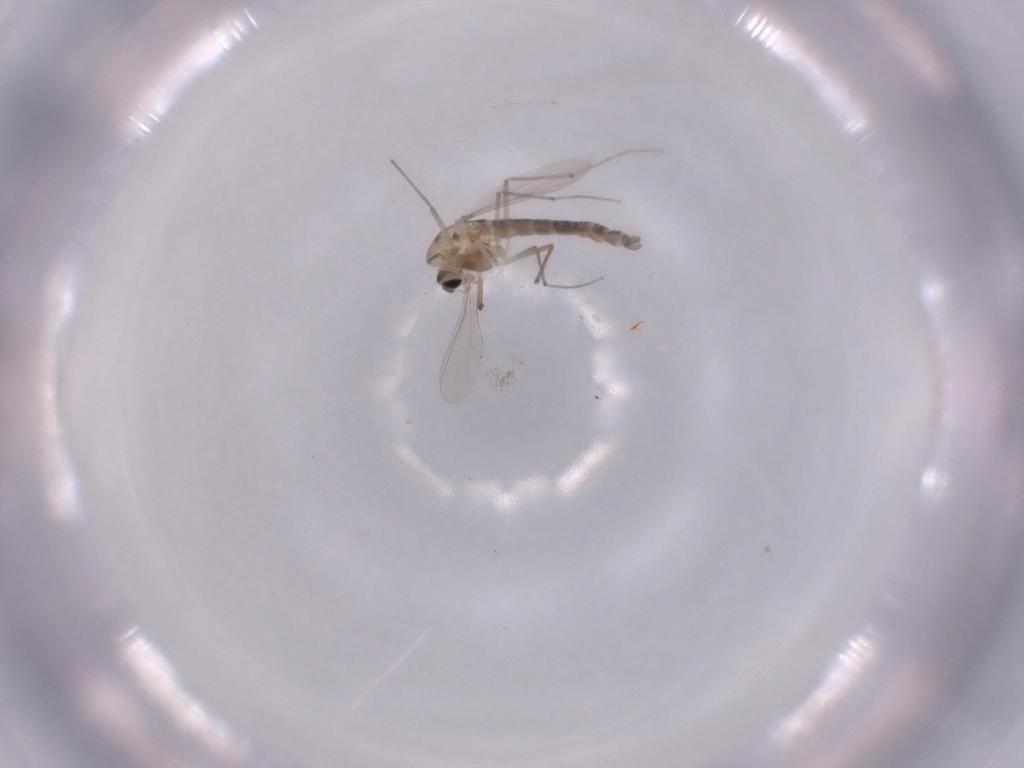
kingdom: Animalia
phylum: Arthropoda
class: Insecta
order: Diptera
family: Chironomidae
